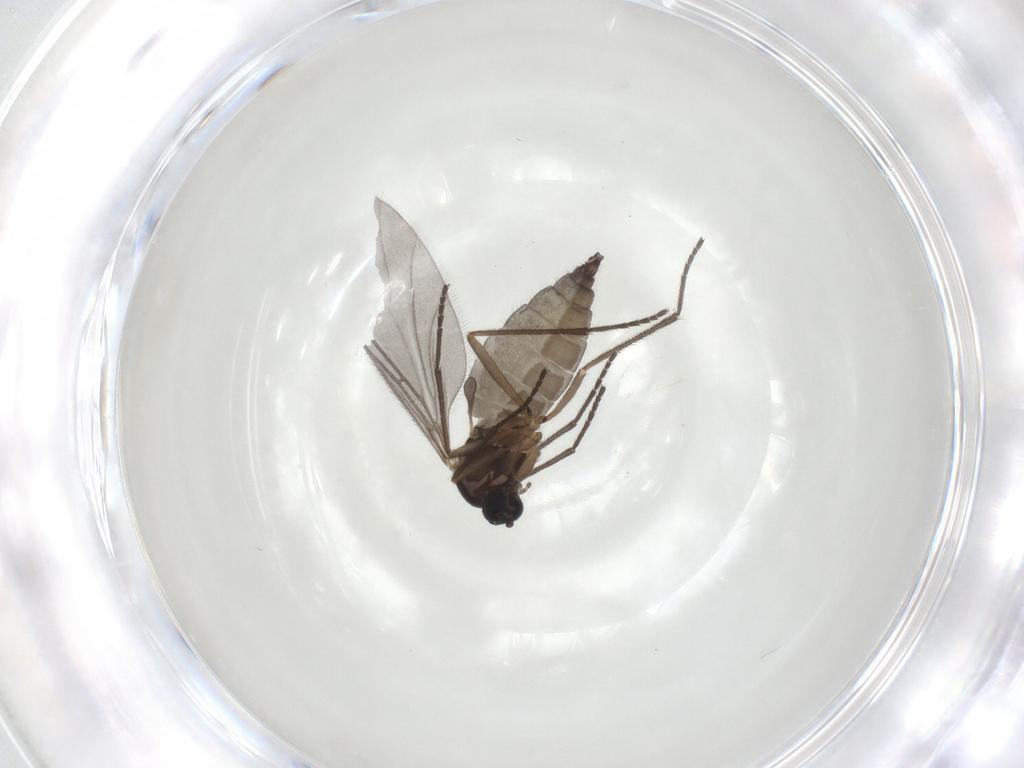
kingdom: Animalia
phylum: Arthropoda
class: Insecta
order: Diptera
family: Sciaridae
